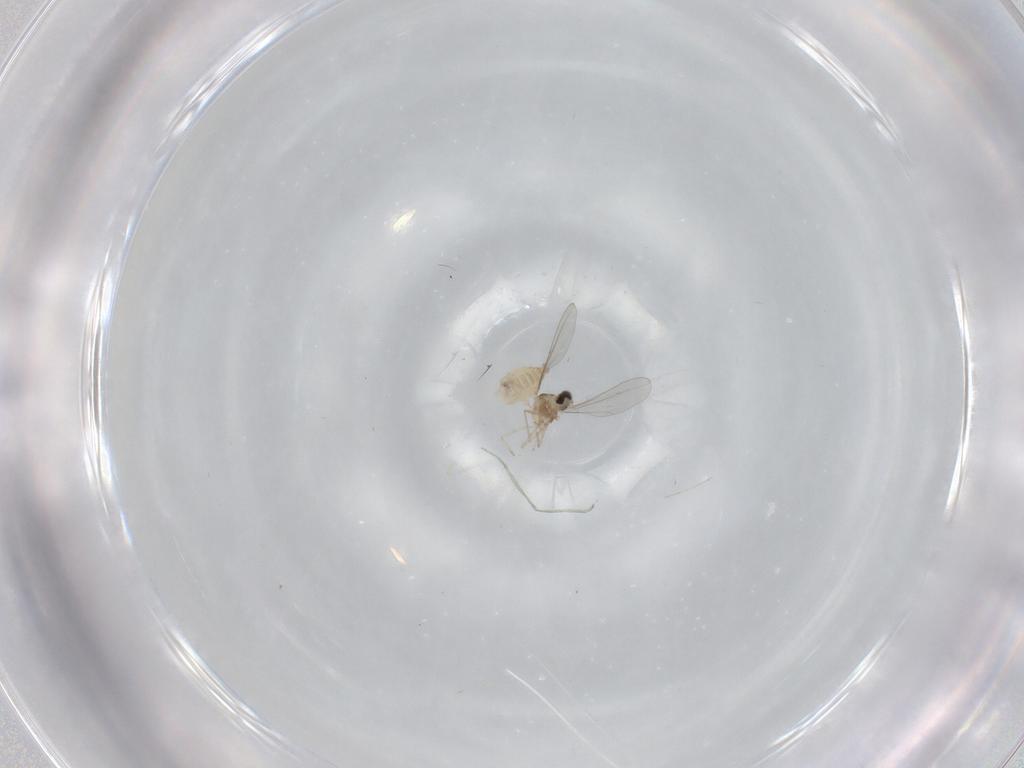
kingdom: Animalia
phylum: Arthropoda
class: Insecta
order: Diptera
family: Cecidomyiidae
